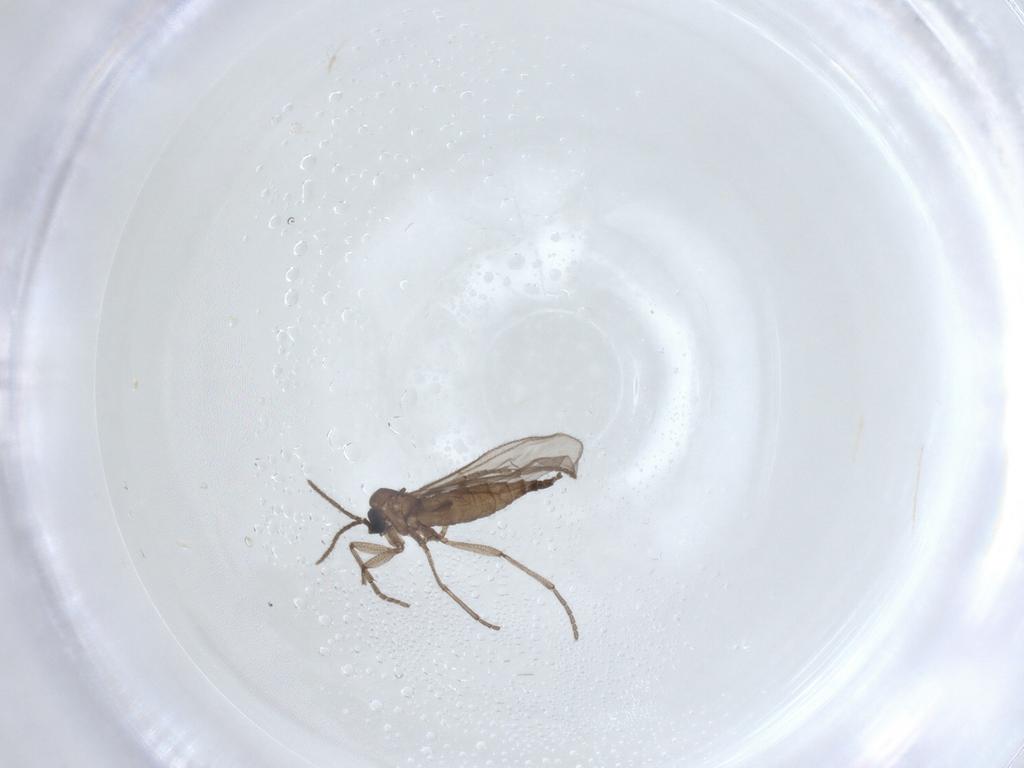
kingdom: Animalia
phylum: Arthropoda
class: Insecta
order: Diptera
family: Sciaridae
